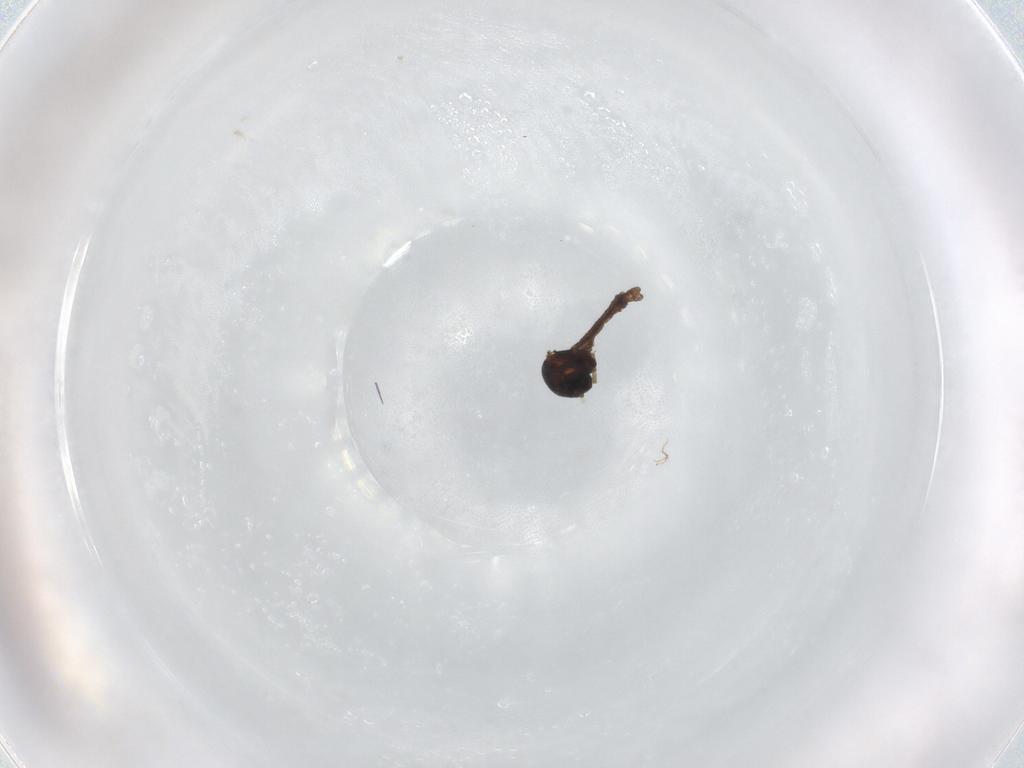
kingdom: Animalia
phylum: Arthropoda
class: Insecta
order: Diptera
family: Ceratopogonidae
